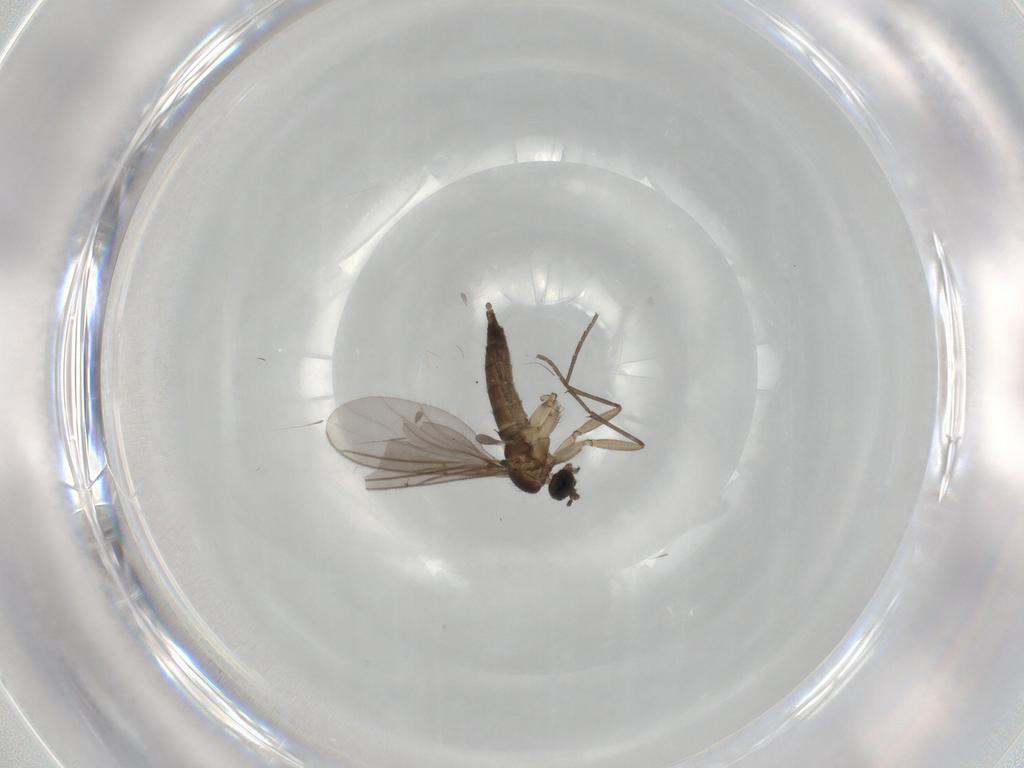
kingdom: Animalia
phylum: Arthropoda
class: Insecta
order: Diptera
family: Sciaridae
